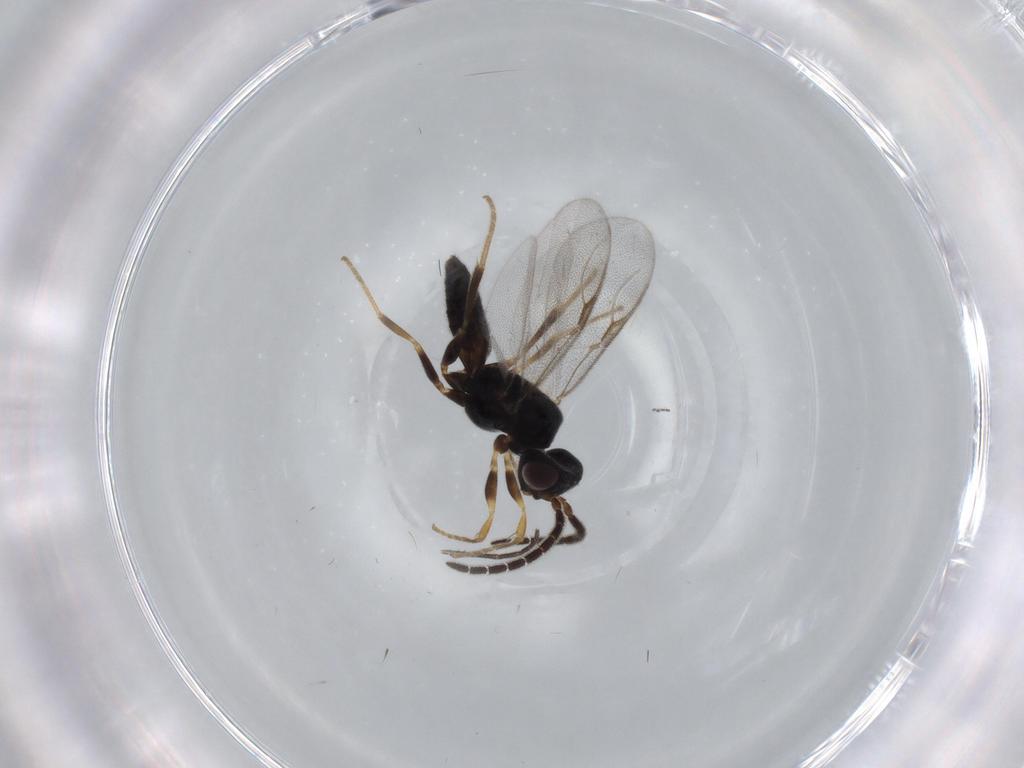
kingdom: Animalia
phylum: Arthropoda
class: Insecta
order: Hymenoptera
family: Dryinidae
